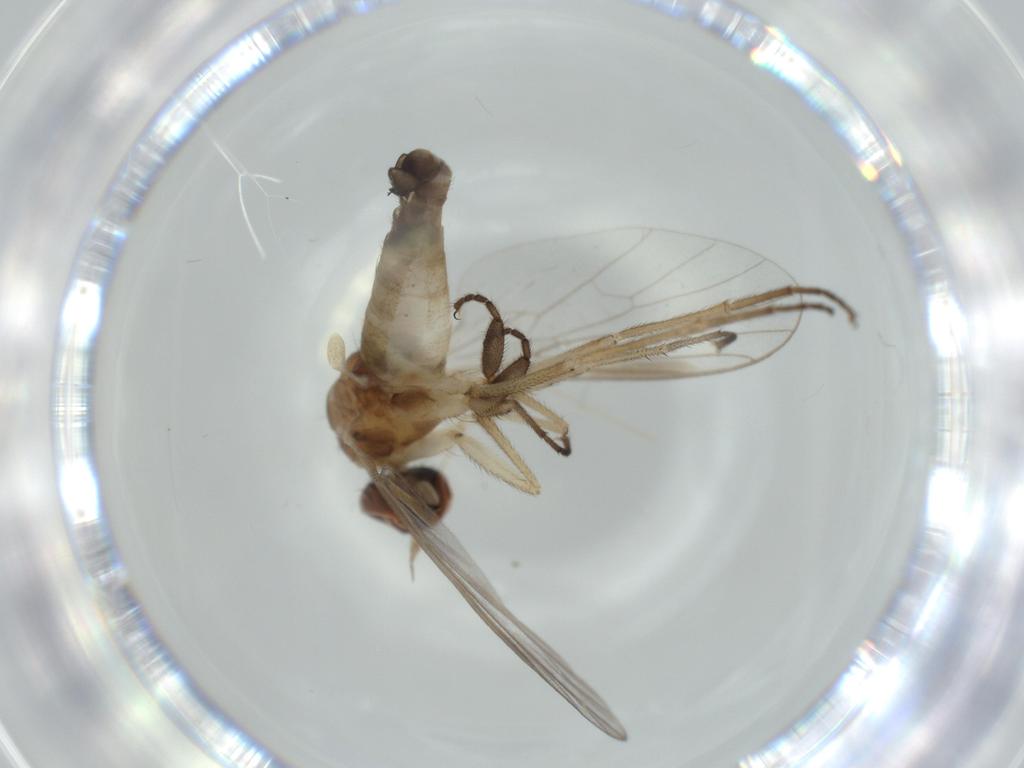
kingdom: Animalia
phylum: Arthropoda
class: Insecta
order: Diptera
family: Empididae
